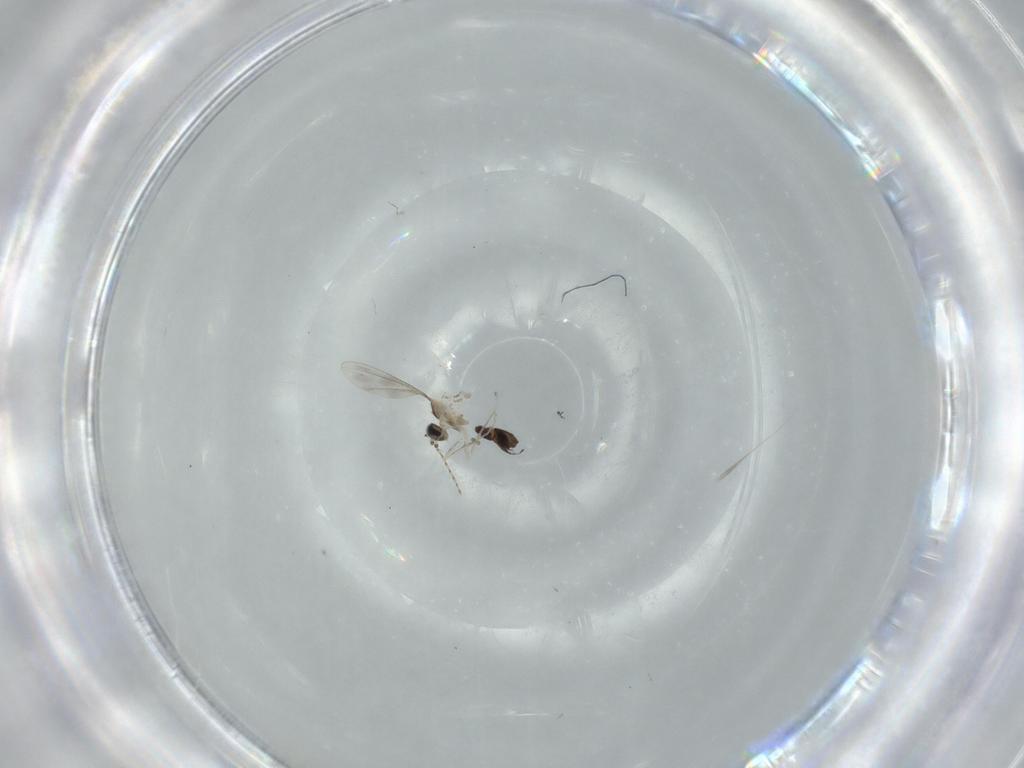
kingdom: Animalia
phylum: Arthropoda
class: Insecta
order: Diptera
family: Cecidomyiidae
